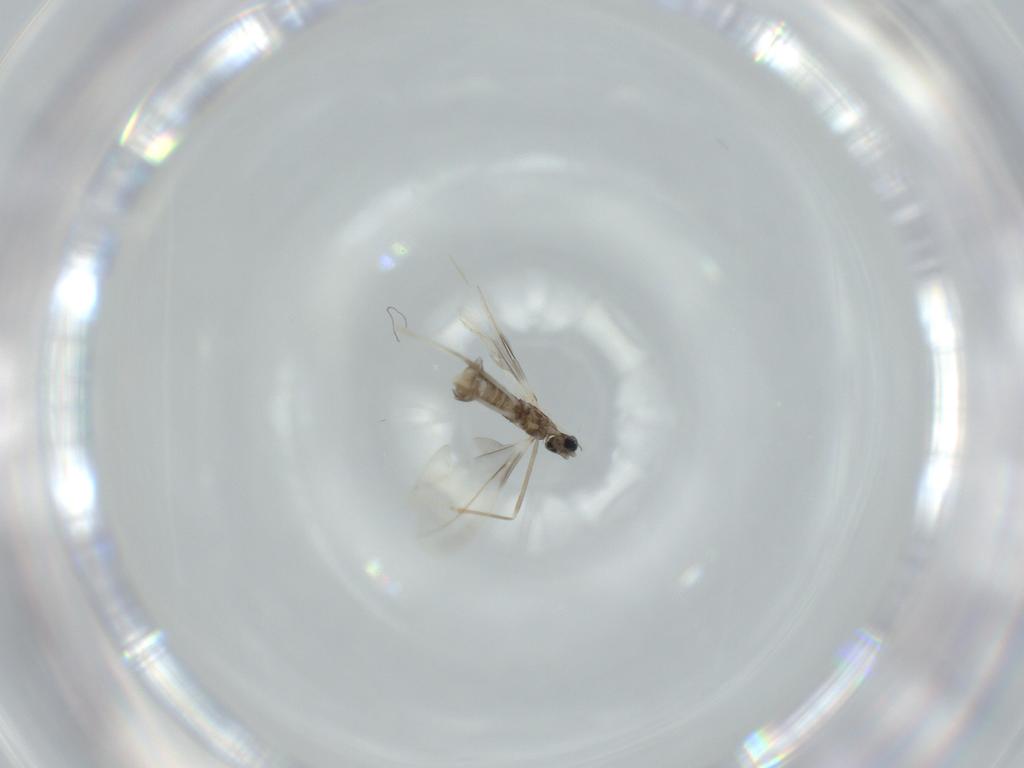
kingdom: Animalia
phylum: Arthropoda
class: Insecta
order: Diptera
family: Cecidomyiidae
